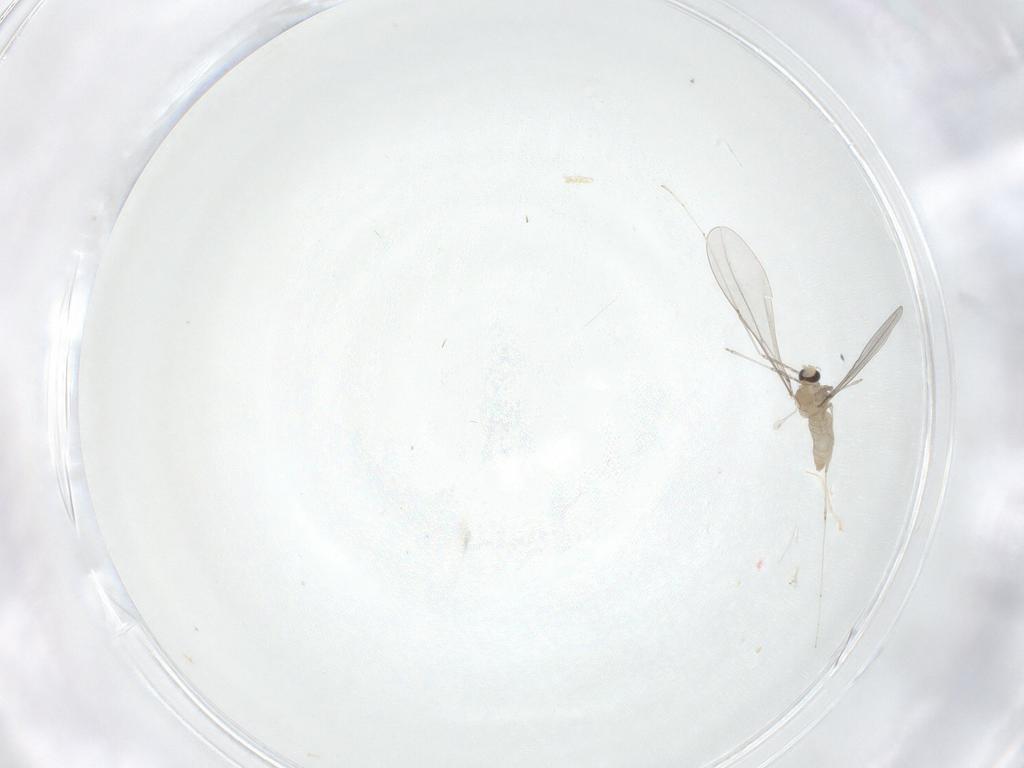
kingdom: Animalia
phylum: Arthropoda
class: Insecta
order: Diptera
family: Cecidomyiidae
